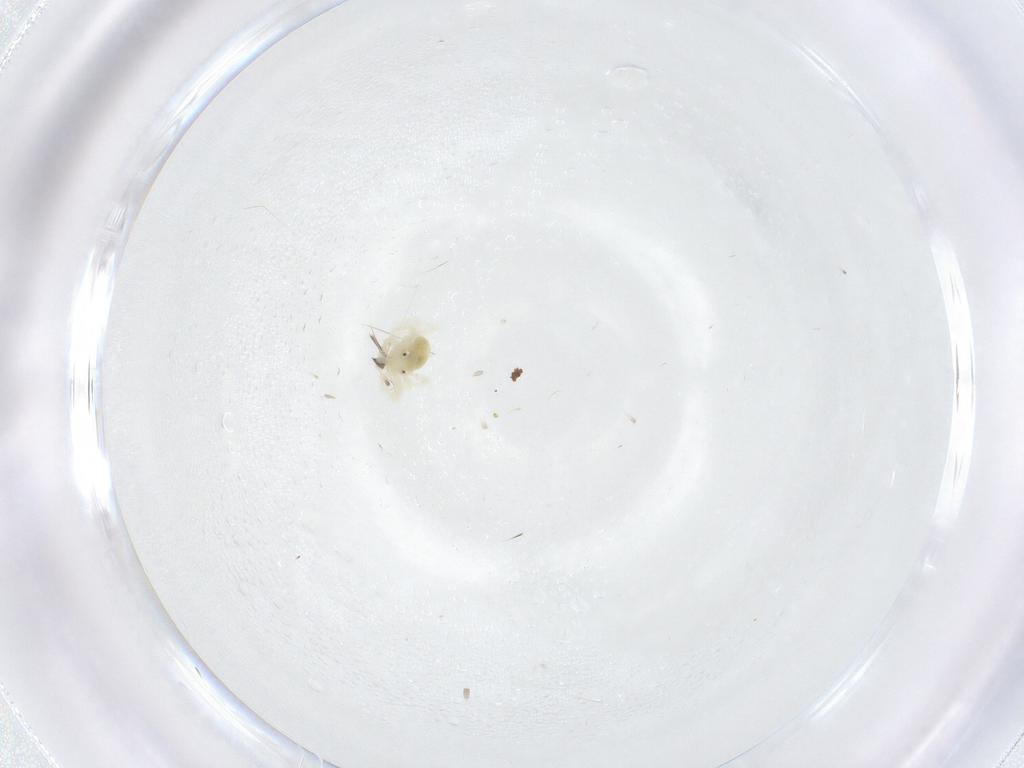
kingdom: Animalia
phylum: Arthropoda
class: Arachnida
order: Trombidiformes
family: Anystidae
